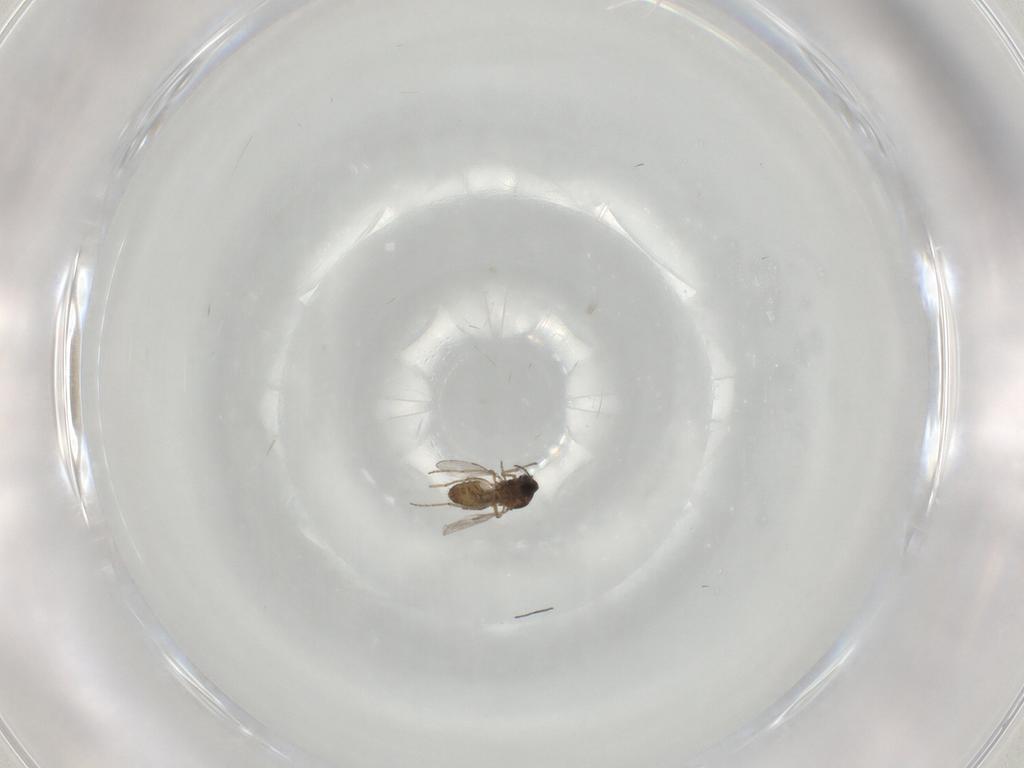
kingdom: Animalia
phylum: Arthropoda
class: Insecta
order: Diptera
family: Ceratopogonidae
